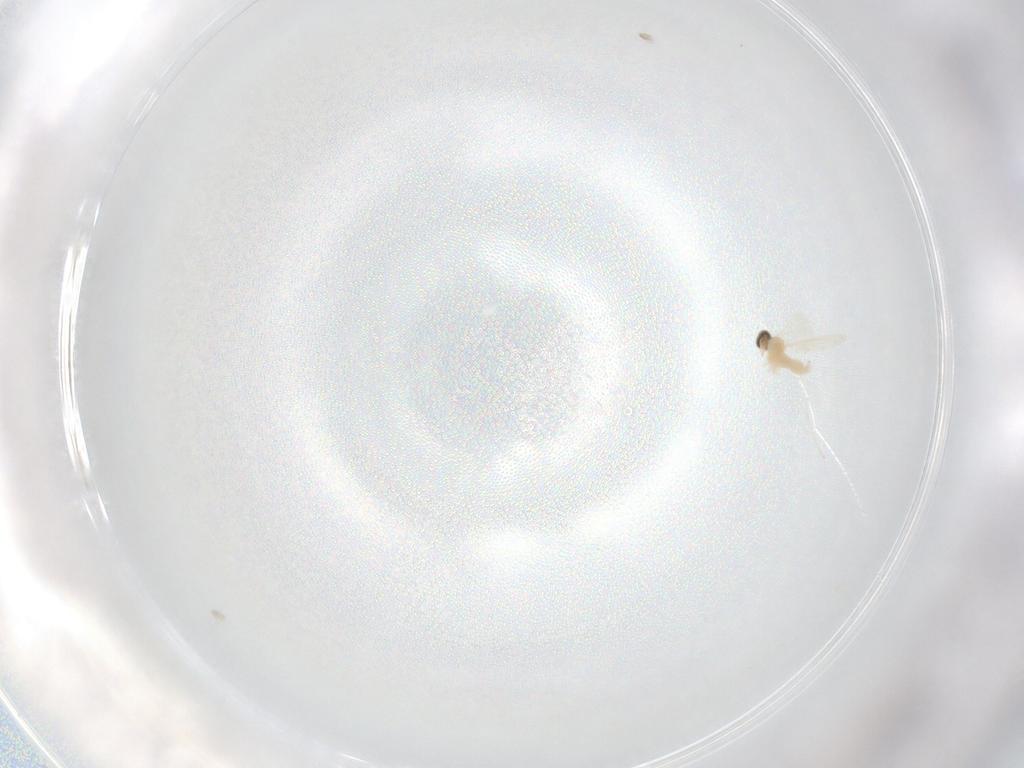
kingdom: Animalia
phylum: Arthropoda
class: Insecta
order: Diptera
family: Cecidomyiidae
